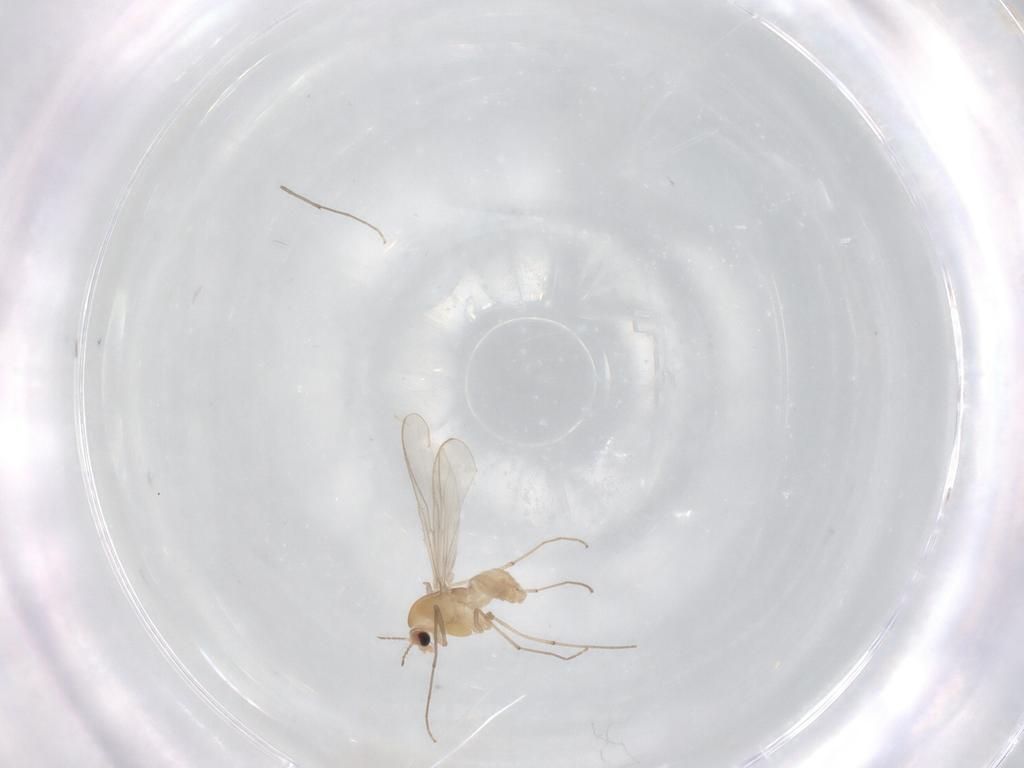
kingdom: Animalia
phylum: Arthropoda
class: Insecta
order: Diptera
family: Chironomidae
